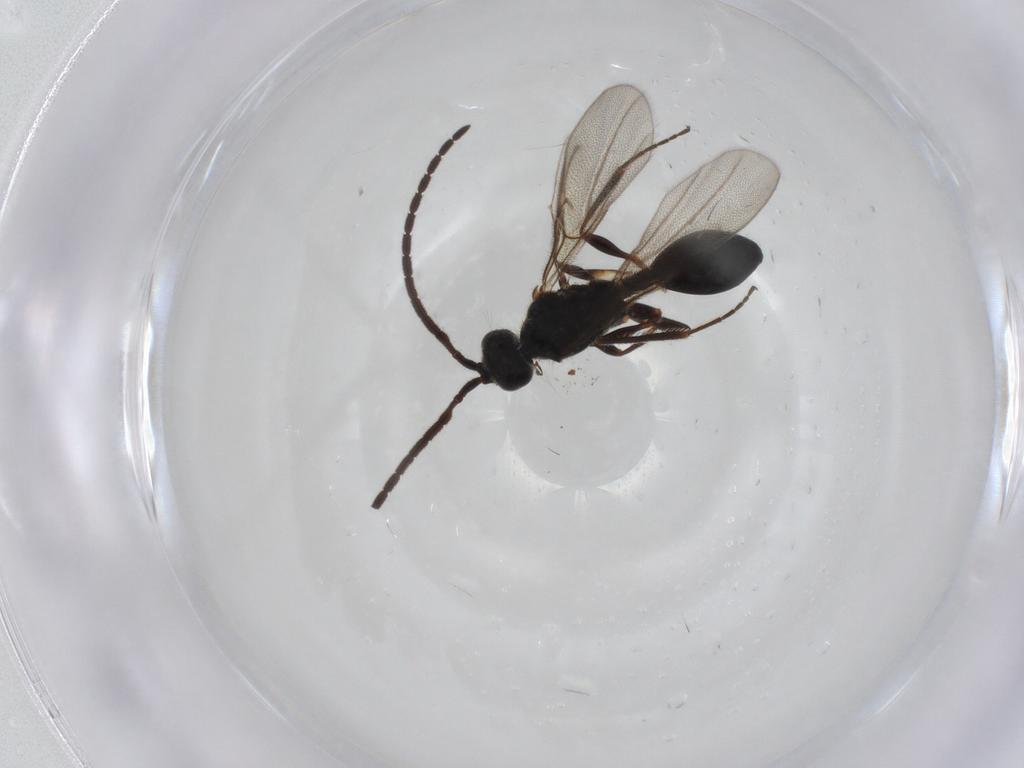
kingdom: Animalia
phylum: Arthropoda
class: Insecta
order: Hymenoptera
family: Diapriidae
